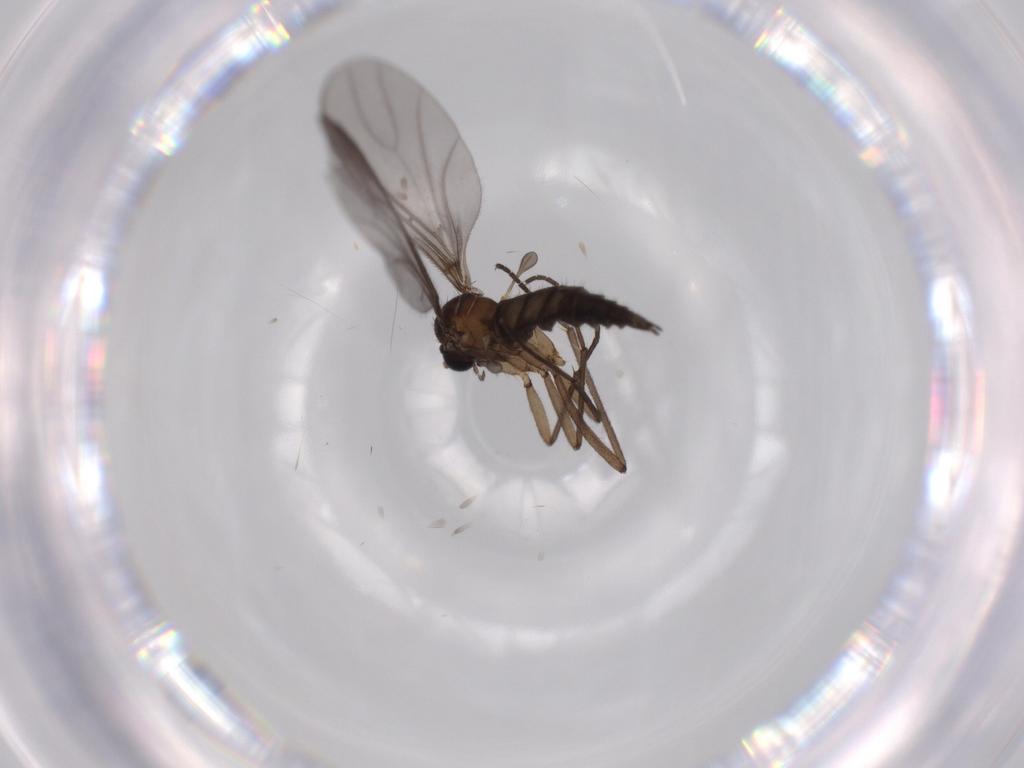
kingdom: Animalia
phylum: Arthropoda
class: Insecta
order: Diptera
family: Sciaridae
